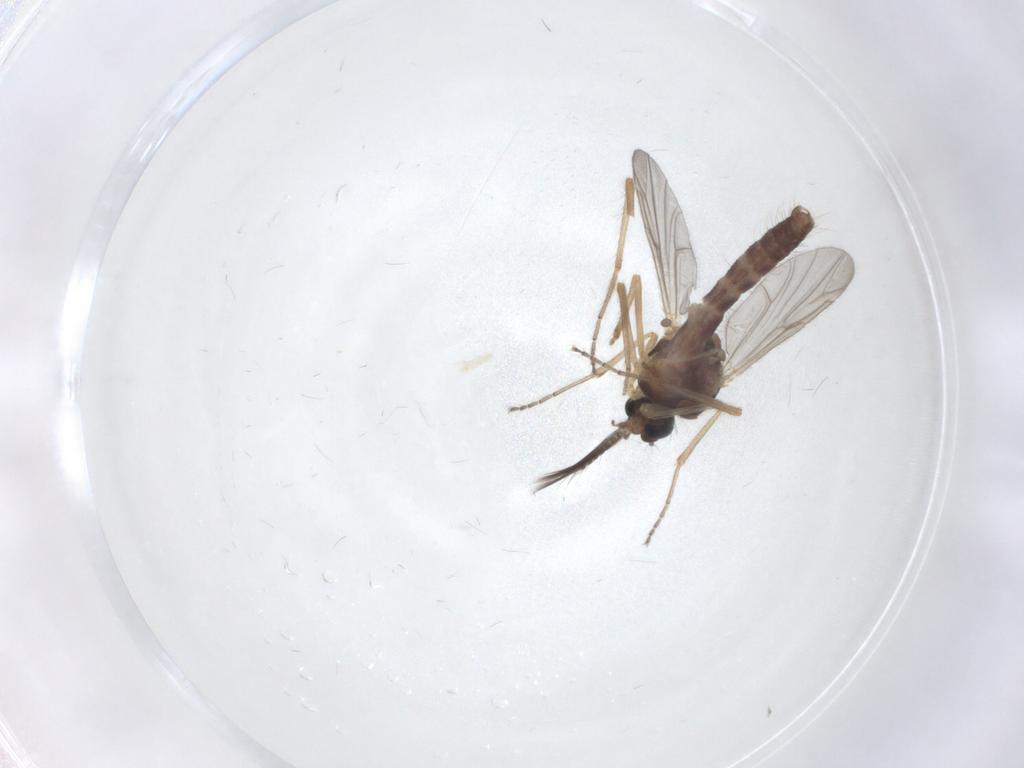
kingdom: Animalia
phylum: Arthropoda
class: Insecta
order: Diptera
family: Ceratopogonidae
